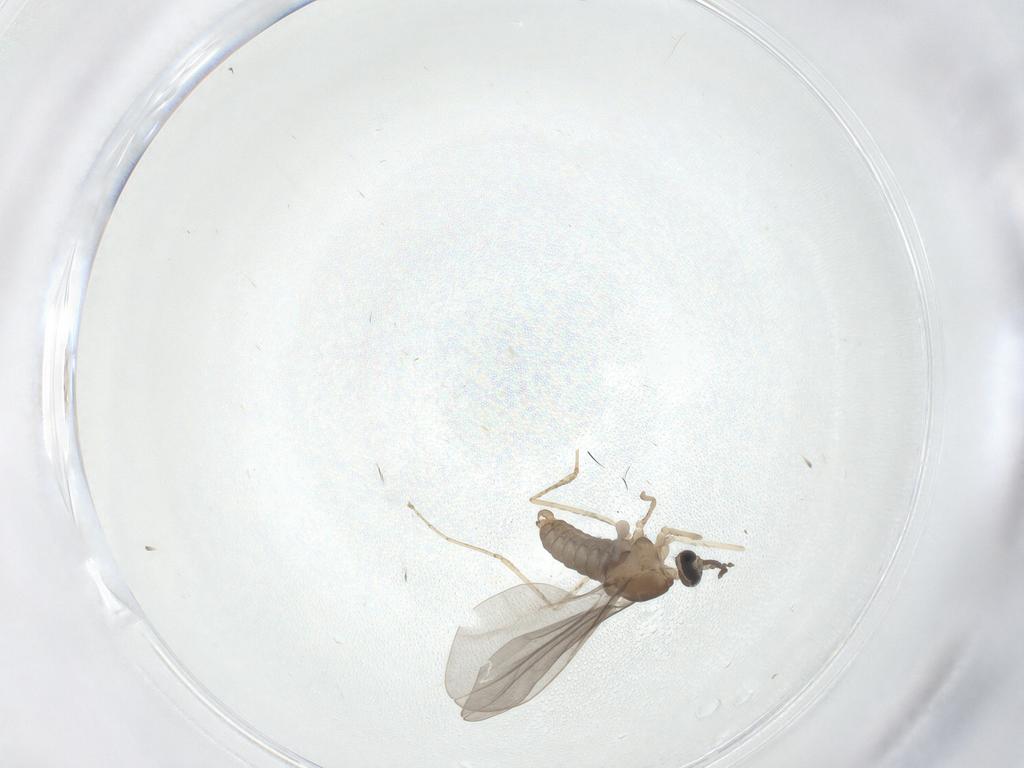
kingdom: Animalia
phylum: Arthropoda
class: Insecta
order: Diptera
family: Cecidomyiidae
